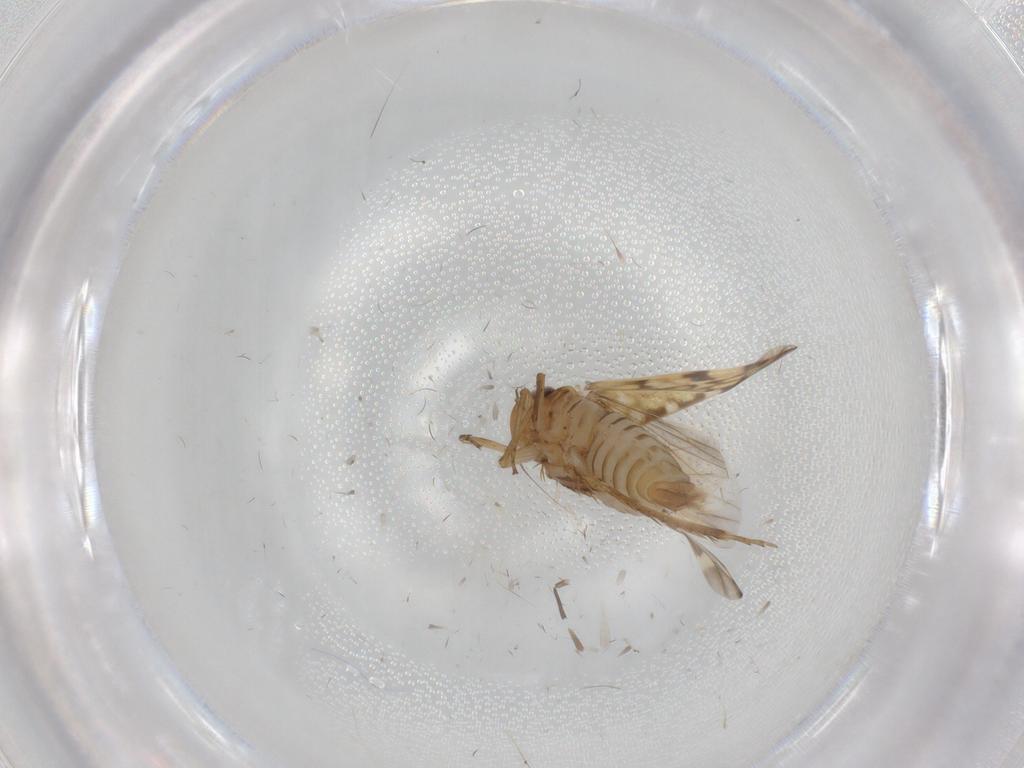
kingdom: Animalia
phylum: Arthropoda
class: Insecta
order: Hemiptera
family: Cicadellidae
